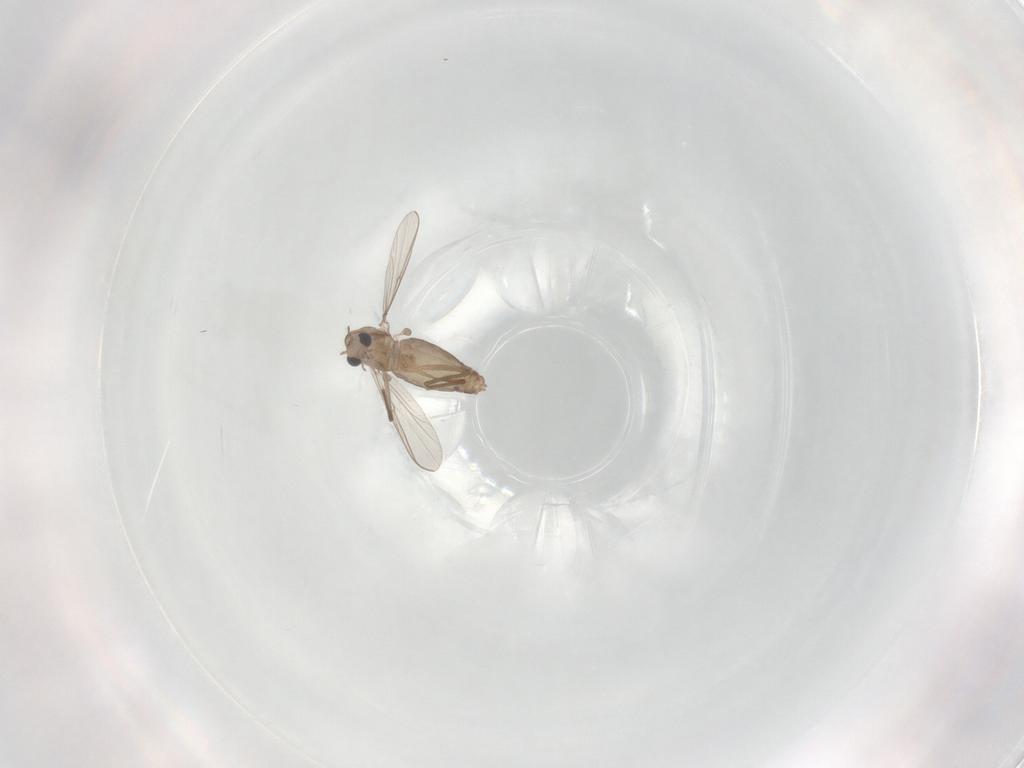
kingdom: Animalia
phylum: Arthropoda
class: Insecta
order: Diptera
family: Chironomidae
